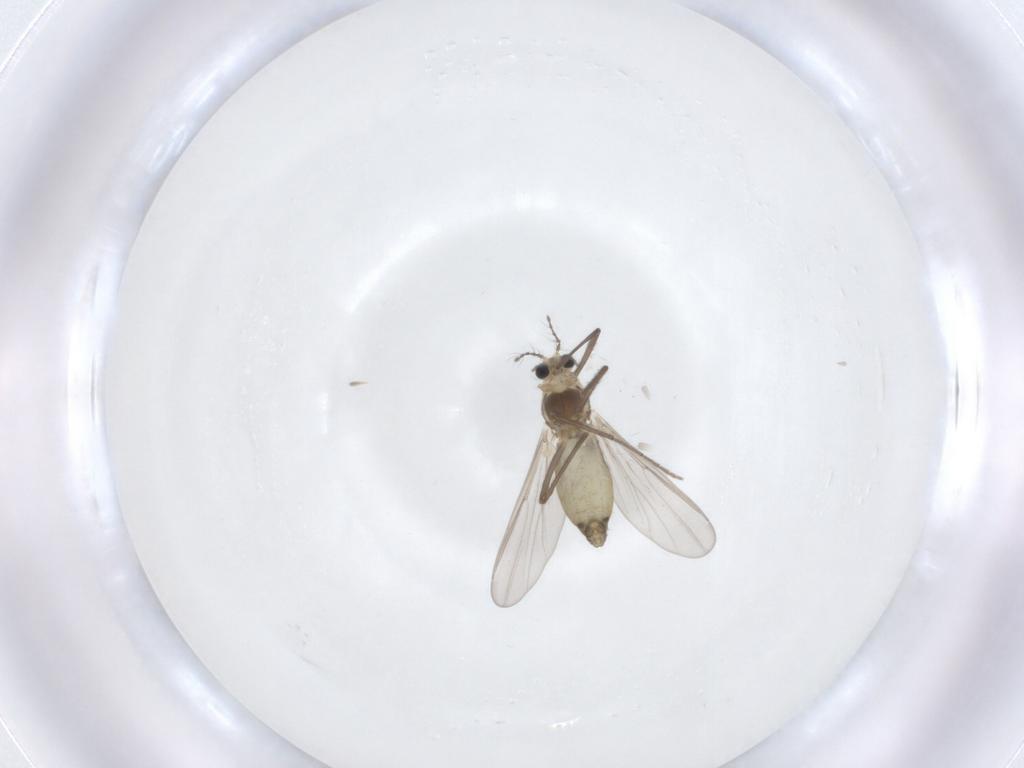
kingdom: Animalia
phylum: Arthropoda
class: Insecta
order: Diptera
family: Chironomidae
